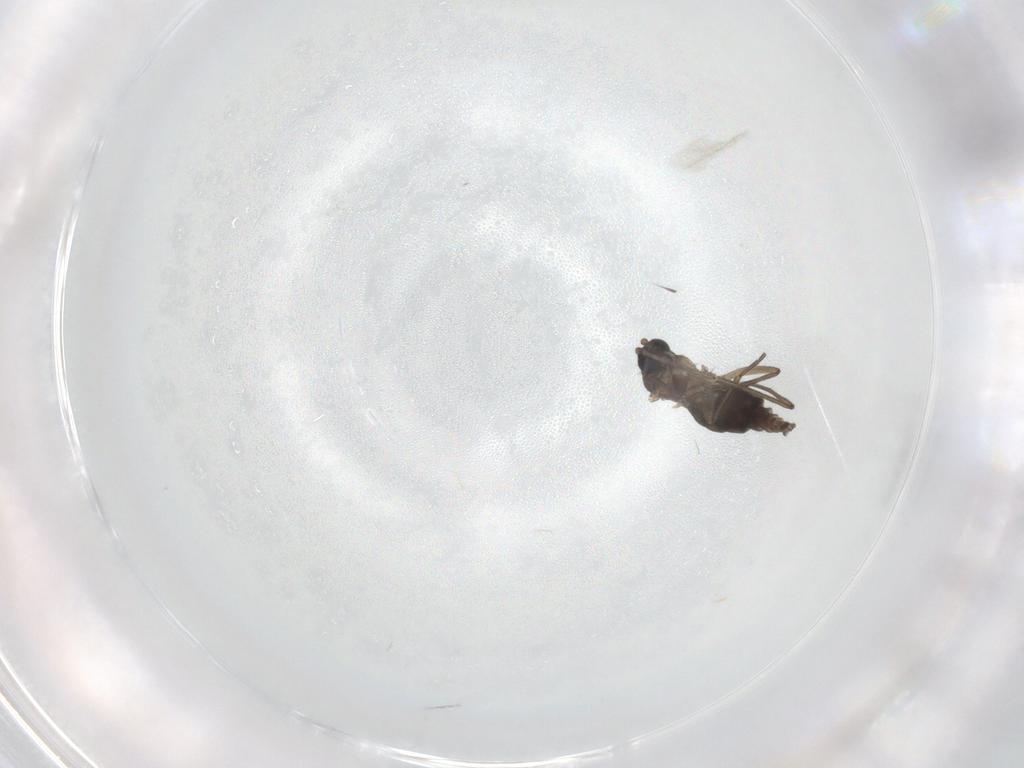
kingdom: Animalia
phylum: Arthropoda
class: Insecta
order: Diptera
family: Sciaridae
